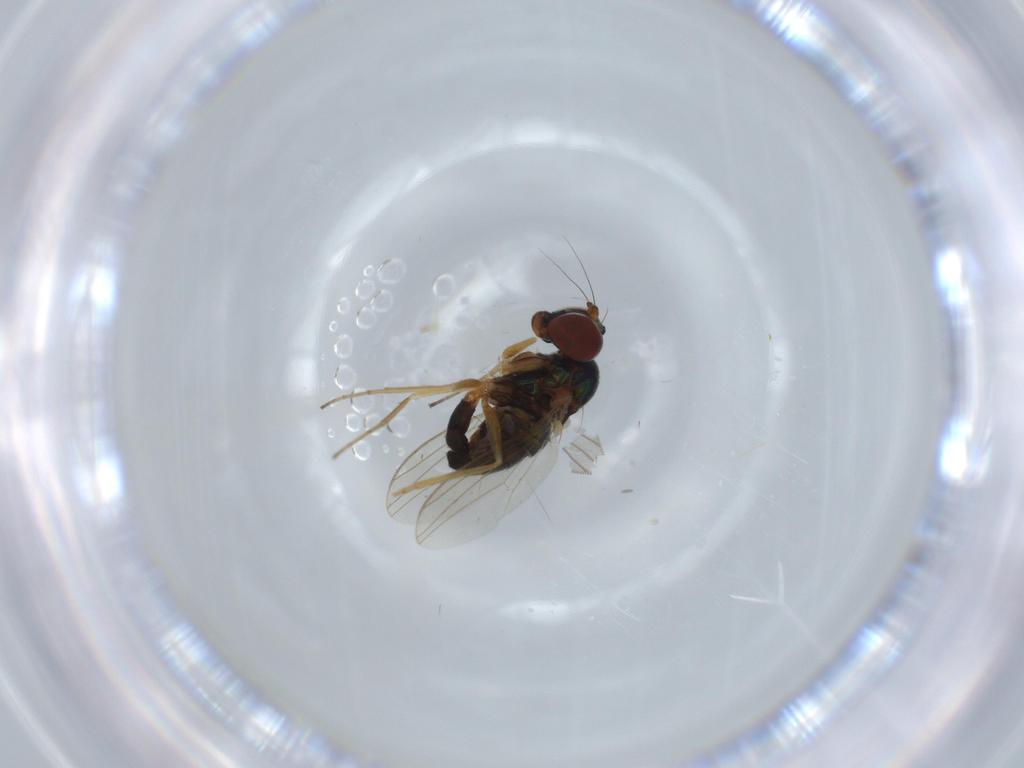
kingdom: Animalia
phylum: Arthropoda
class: Insecta
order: Diptera
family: Dolichopodidae
